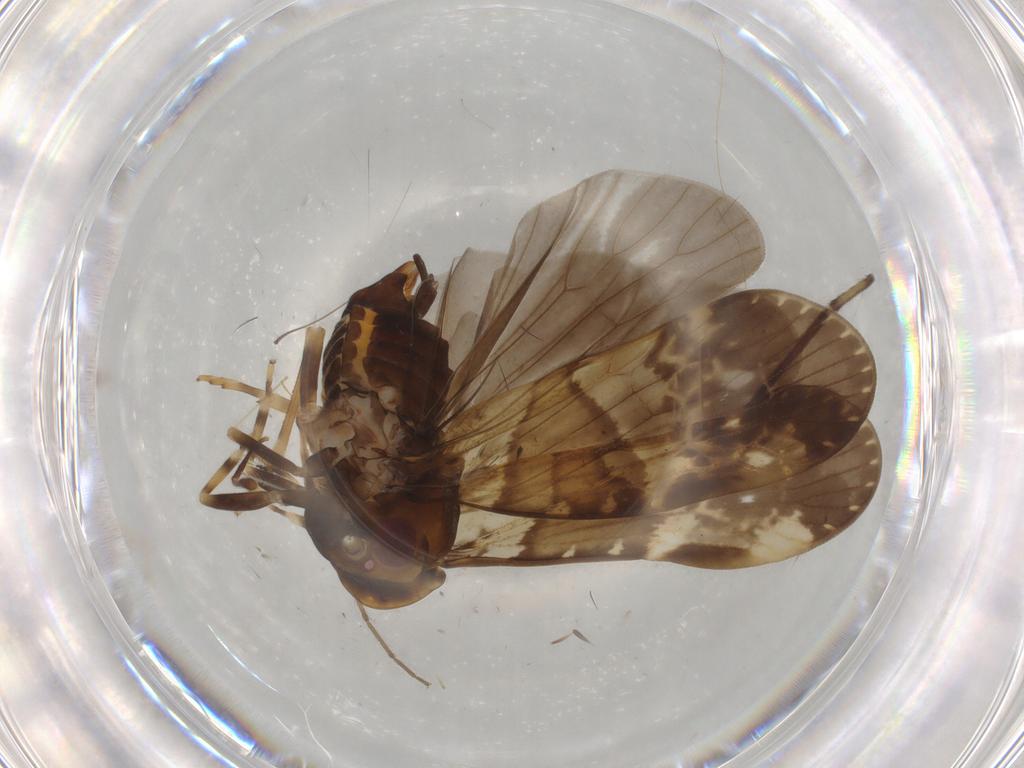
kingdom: Animalia
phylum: Arthropoda
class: Insecta
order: Hemiptera
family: Cixiidae
